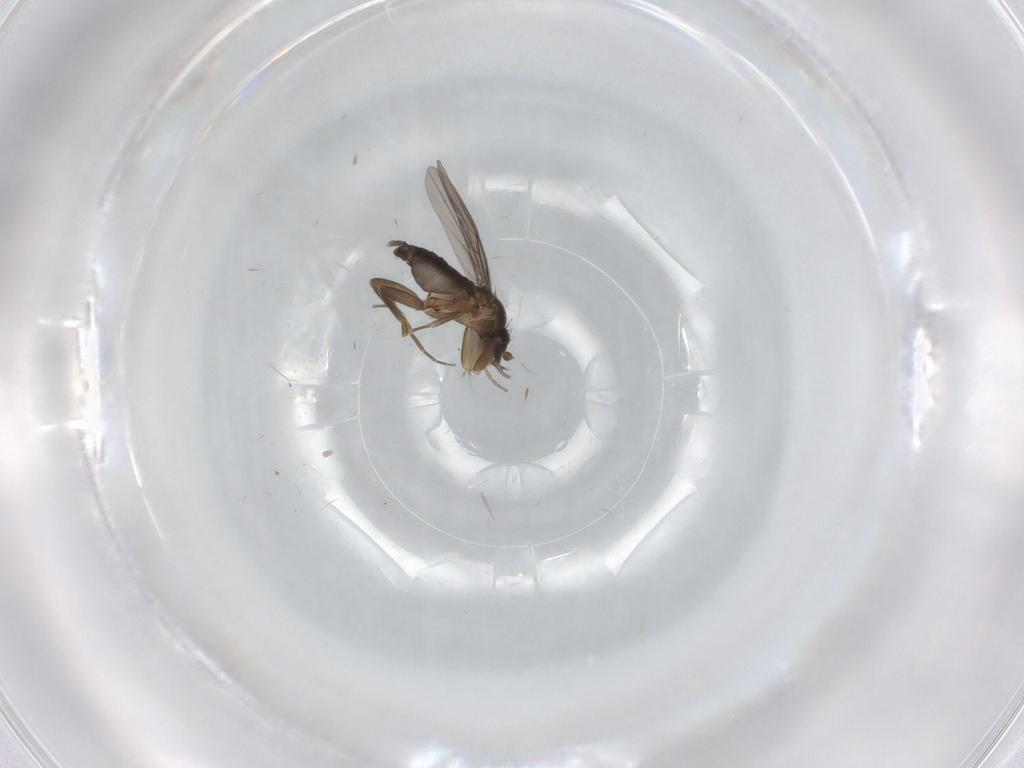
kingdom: Animalia
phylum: Arthropoda
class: Insecta
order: Diptera
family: Phoridae
